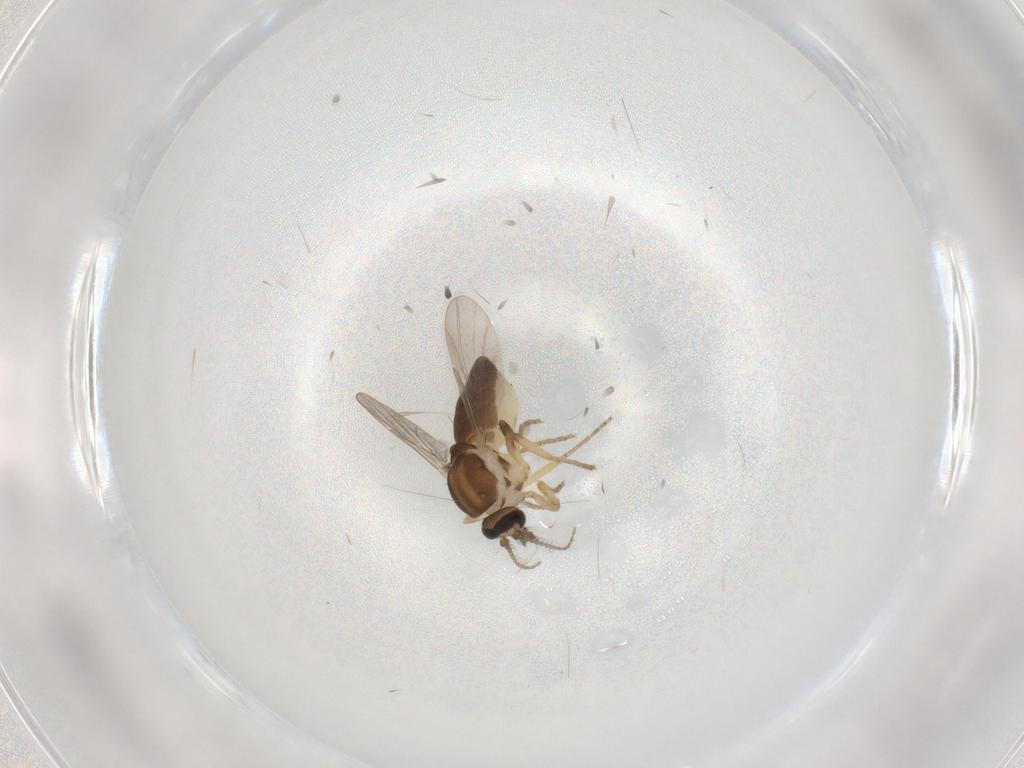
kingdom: Animalia
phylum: Arthropoda
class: Insecta
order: Diptera
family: Ceratopogonidae
